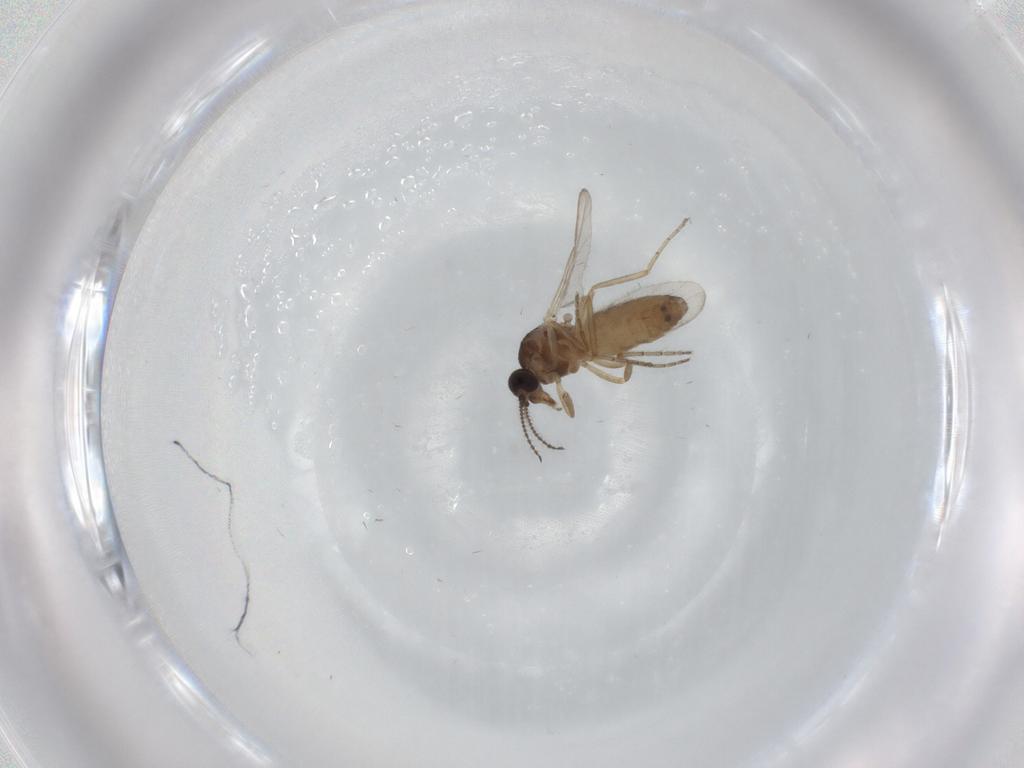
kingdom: Animalia
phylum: Arthropoda
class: Insecta
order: Diptera
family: Ceratopogonidae
